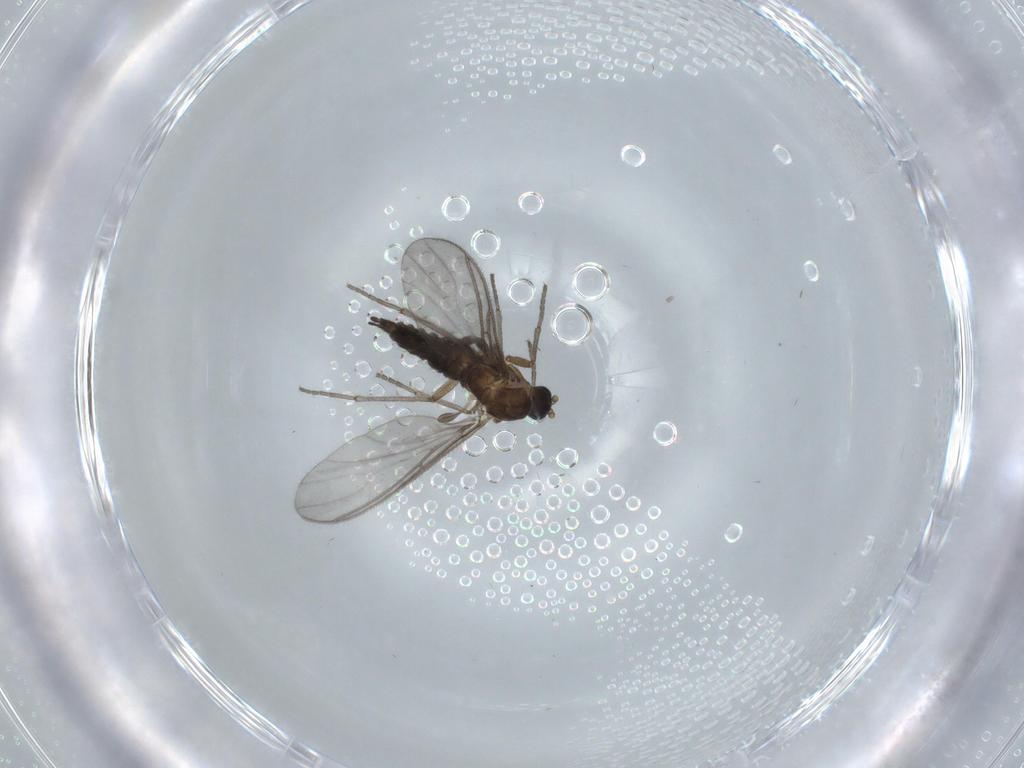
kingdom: Animalia
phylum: Arthropoda
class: Insecta
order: Diptera
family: Sciaridae
